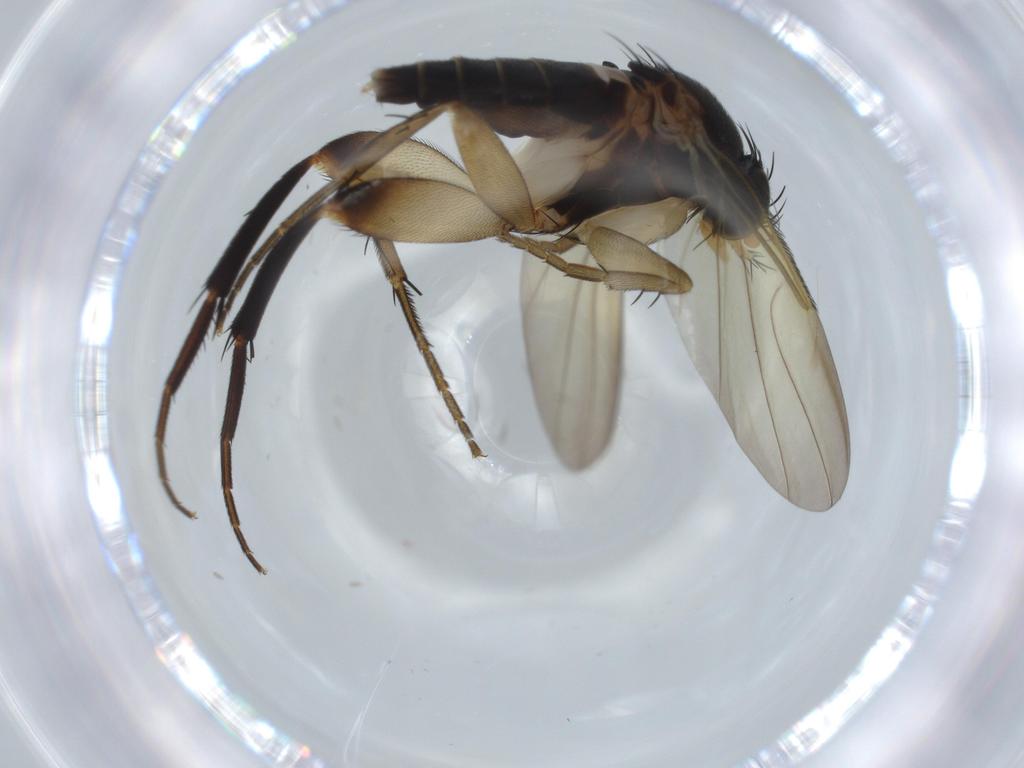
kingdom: Animalia
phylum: Arthropoda
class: Insecta
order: Diptera
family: Phoridae
